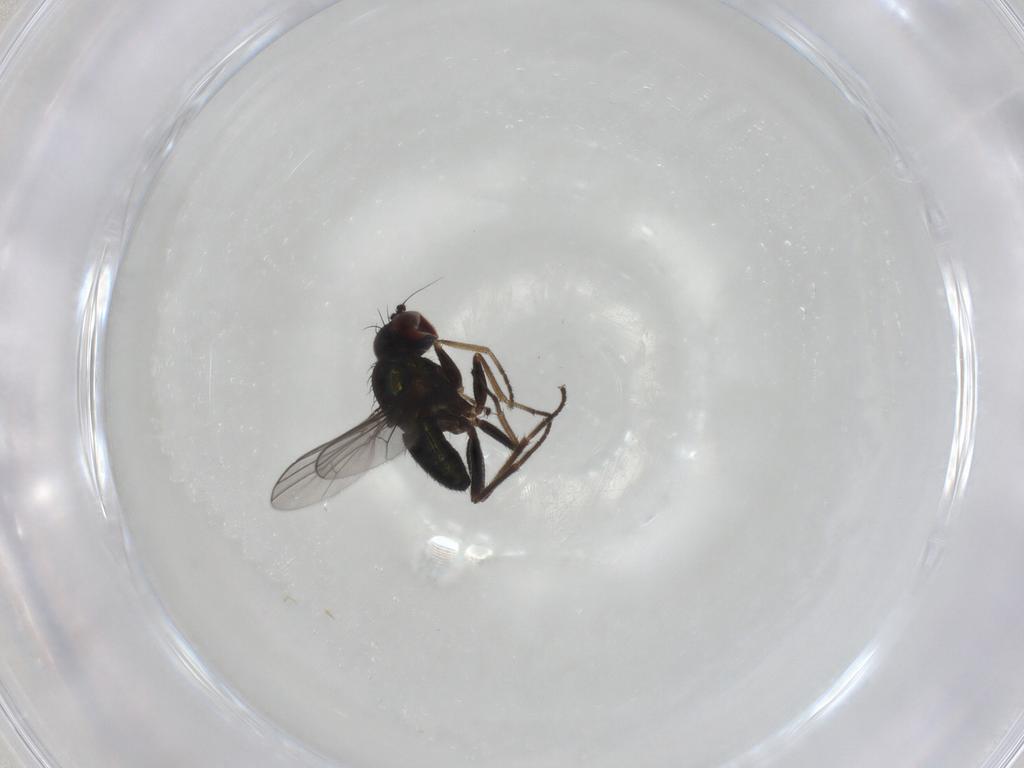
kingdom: Animalia
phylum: Arthropoda
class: Insecta
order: Diptera
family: Dolichopodidae
